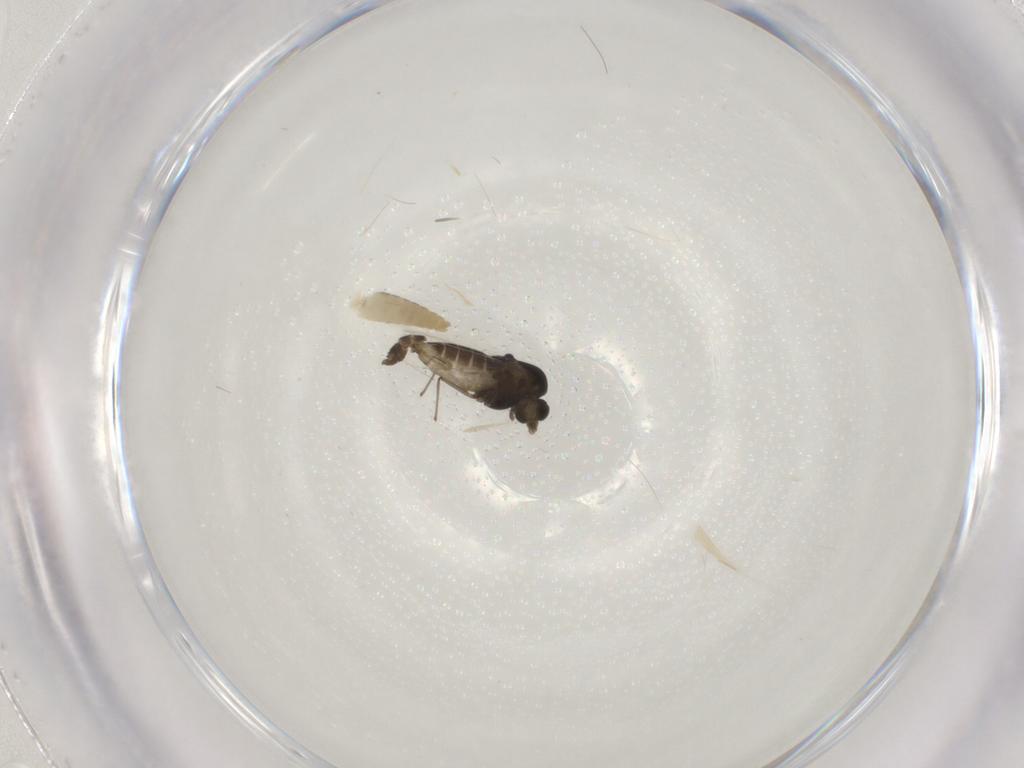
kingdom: Animalia
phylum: Arthropoda
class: Insecta
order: Diptera
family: Chironomidae
